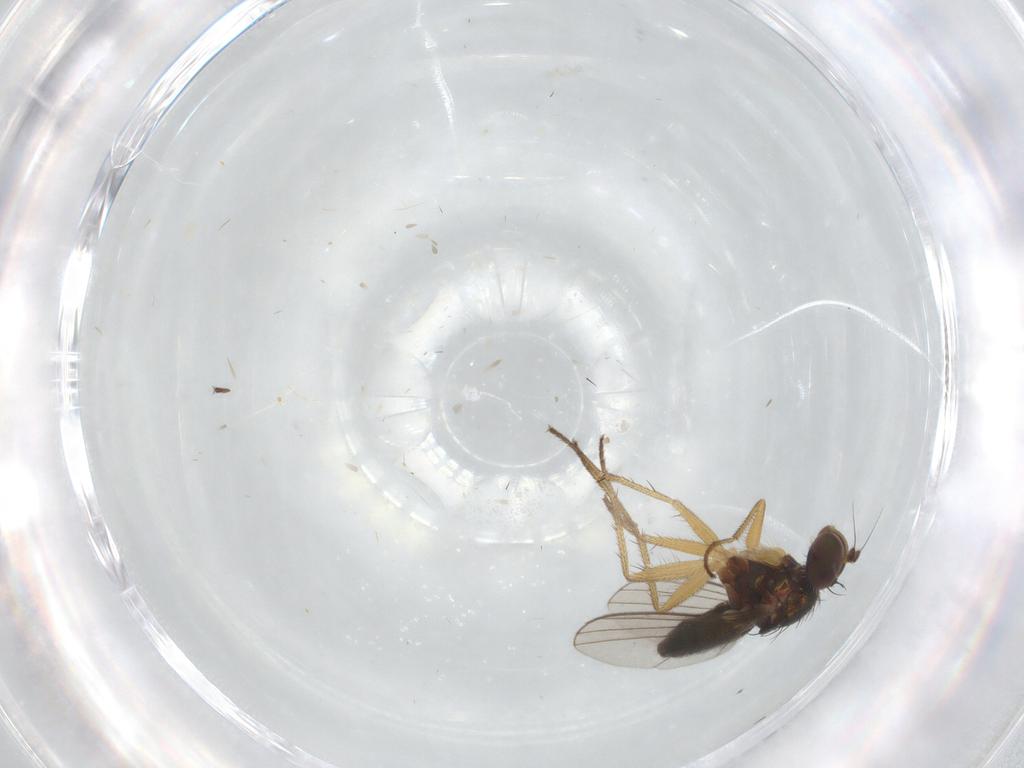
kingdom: Animalia
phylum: Arthropoda
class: Insecta
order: Diptera
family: Dolichopodidae
